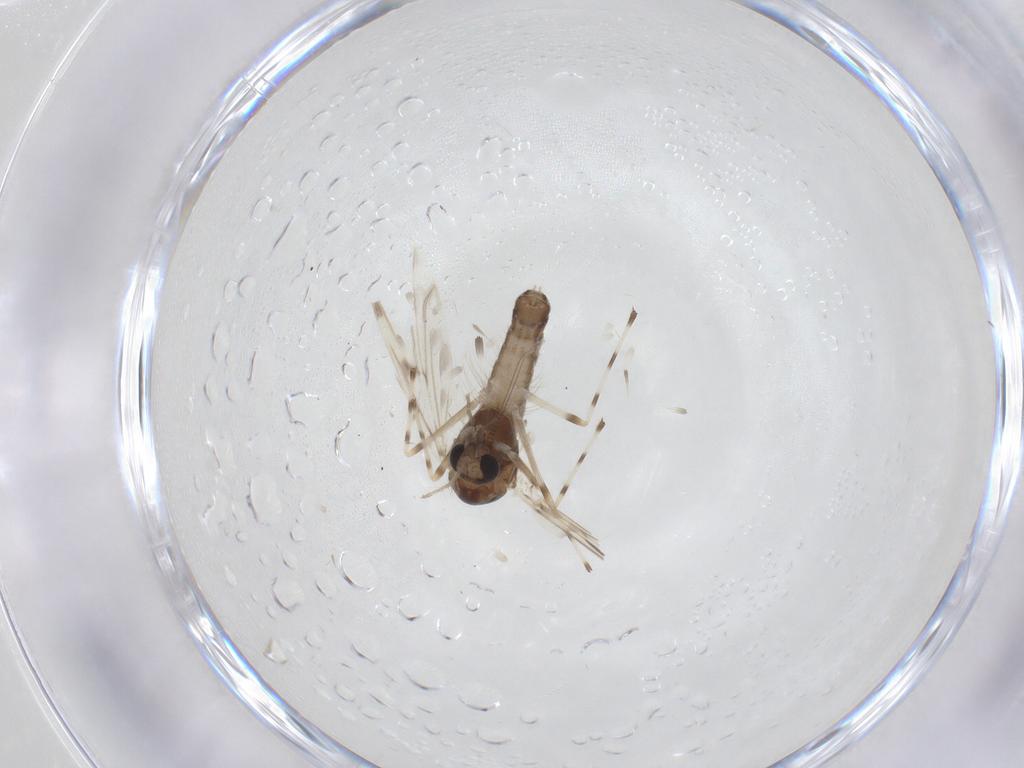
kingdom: Animalia
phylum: Arthropoda
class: Insecta
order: Diptera
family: Chironomidae
